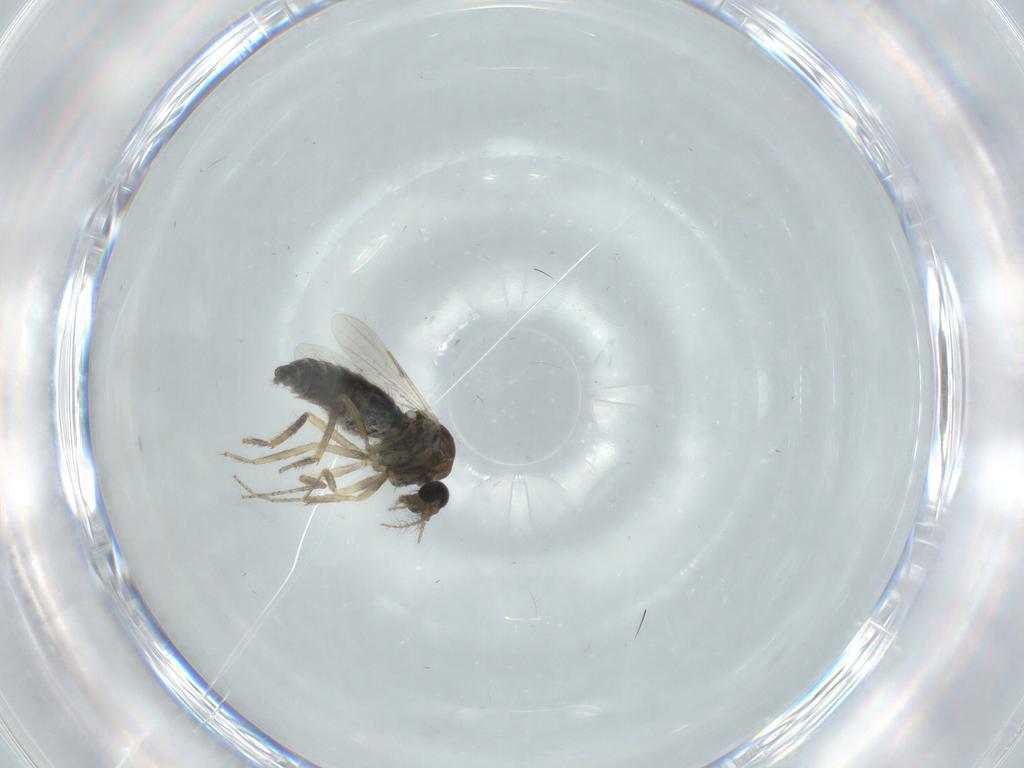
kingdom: Animalia
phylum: Arthropoda
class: Insecta
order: Diptera
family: Ceratopogonidae
